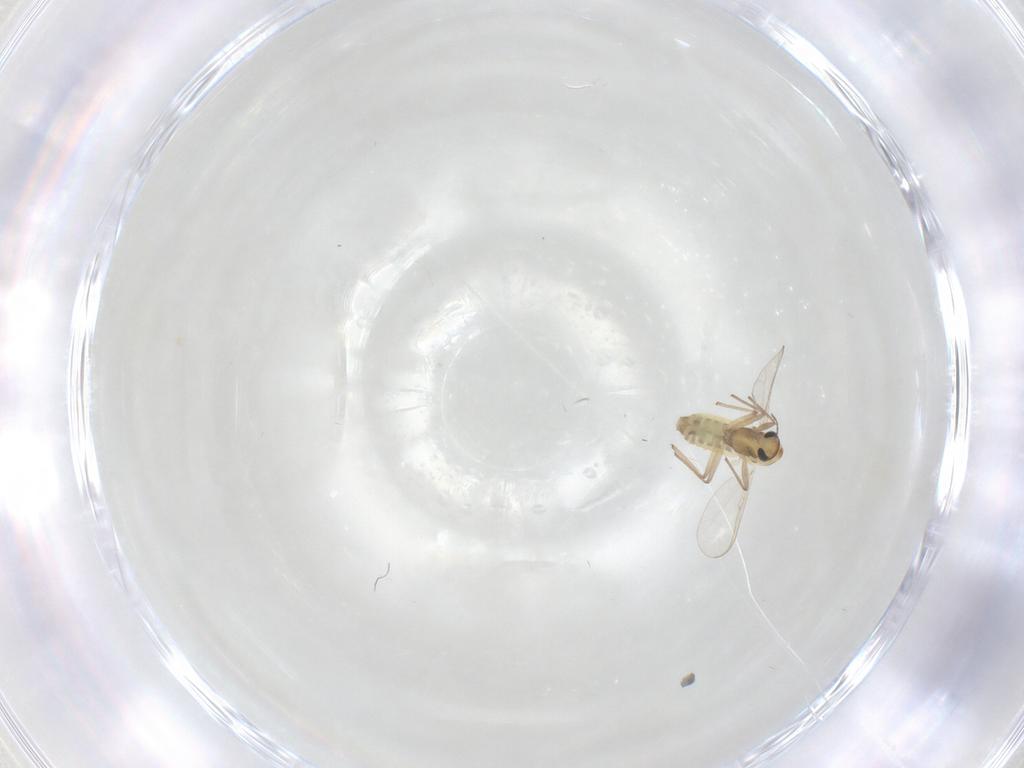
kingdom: Animalia
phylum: Arthropoda
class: Insecta
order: Diptera
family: Chironomidae
